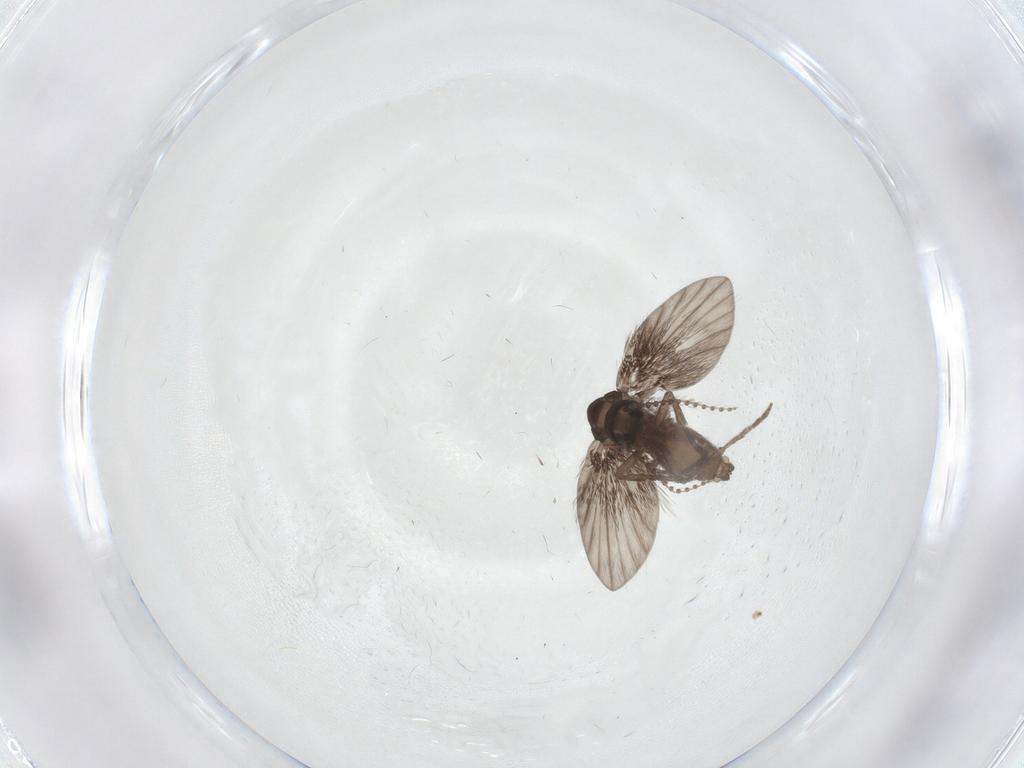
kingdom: Animalia
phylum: Arthropoda
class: Insecta
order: Diptera
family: Psychodidae
